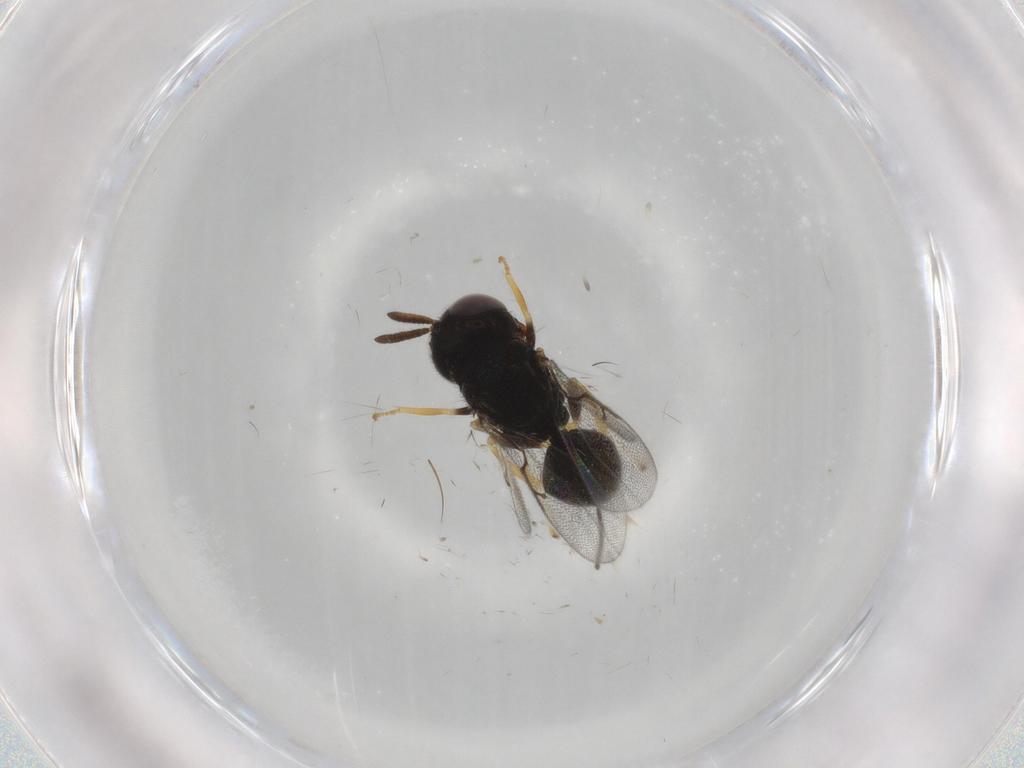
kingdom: Animalia
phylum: Arthropoda
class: Insecta
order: Hymenoptera
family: Perilampidae
